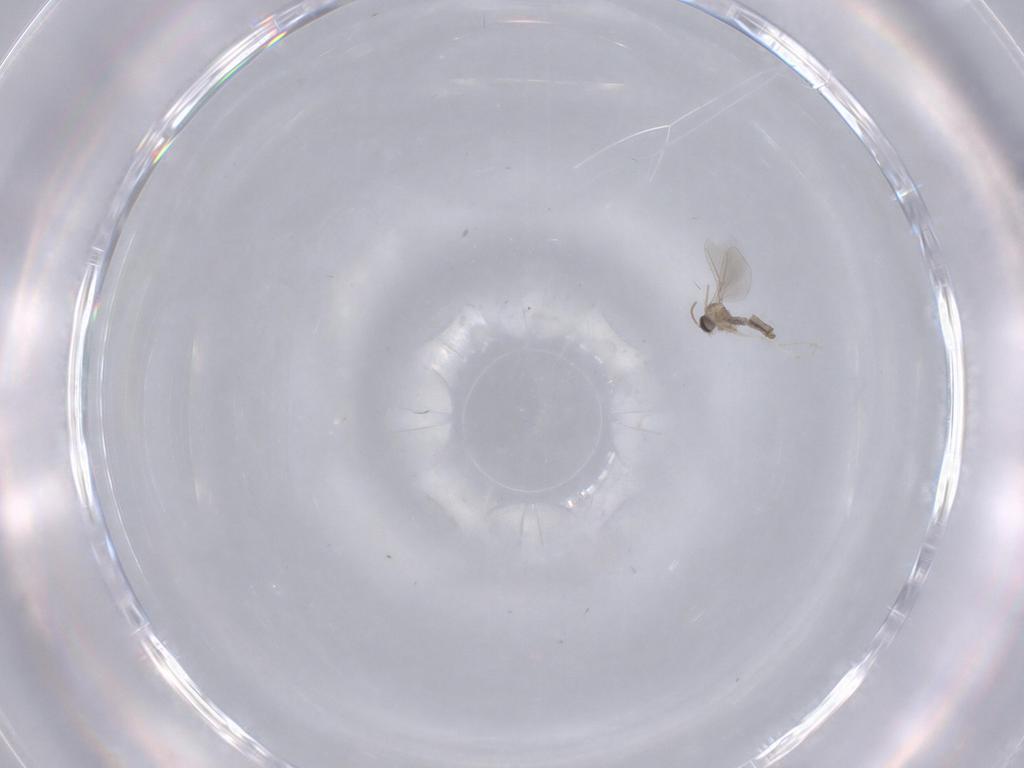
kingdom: Animalia
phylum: Arthropoda
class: Insecta
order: Diptera
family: Cecidomyiidae
